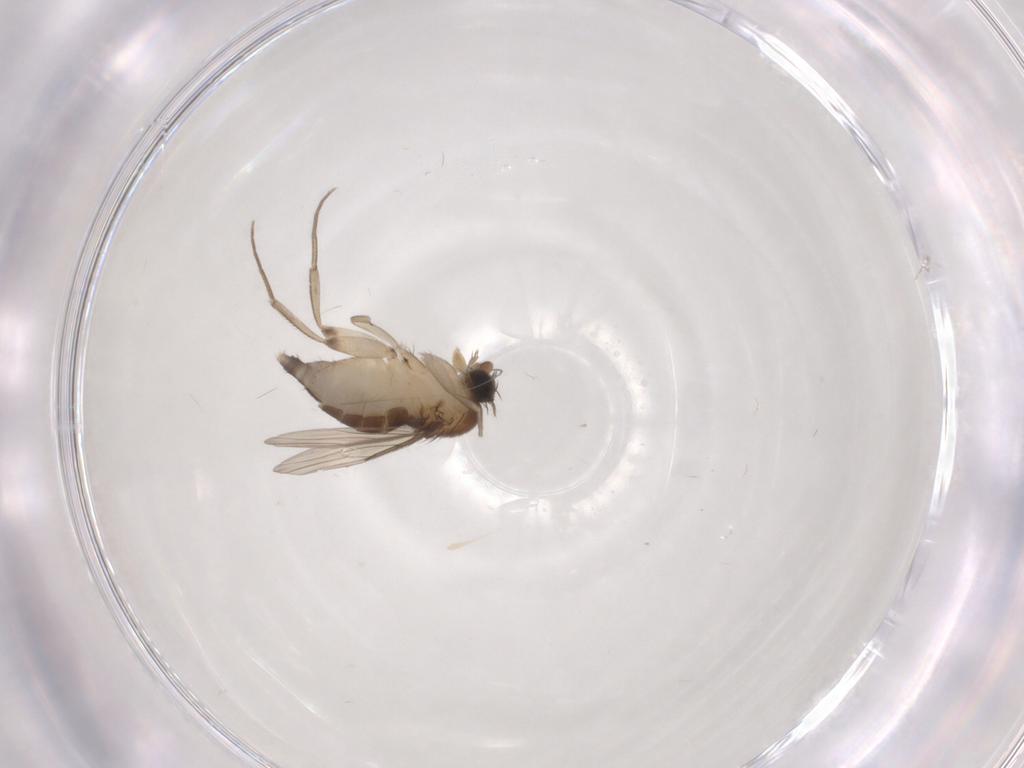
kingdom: Animalia
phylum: Arthropoda
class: Insecta
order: Diptera
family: Phoridae
